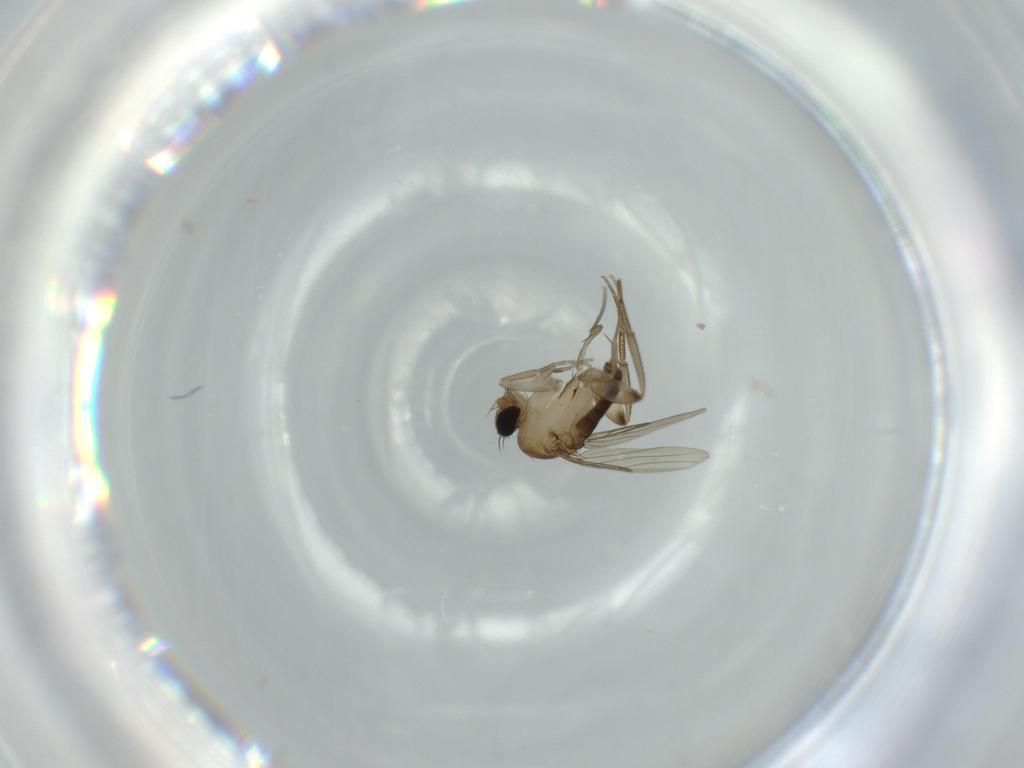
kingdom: Animalia
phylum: Arthropoda
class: Insecta
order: Diptera
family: Phoridae
